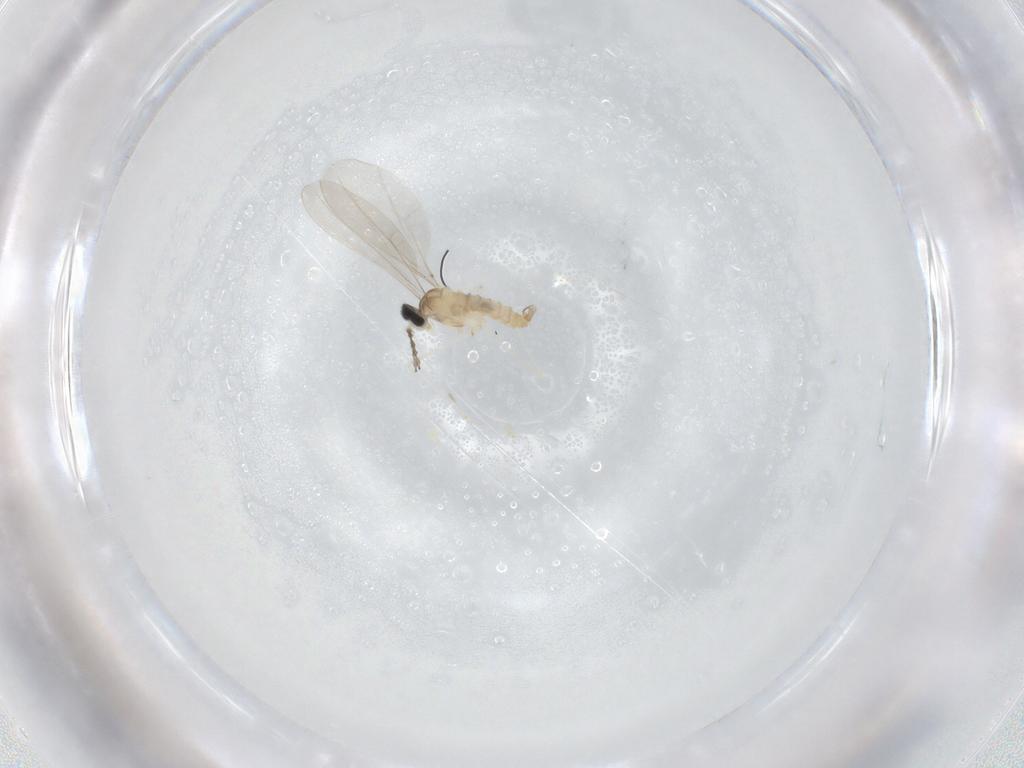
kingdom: Animalia
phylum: Arthropoda
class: Insecta
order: Diptera
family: Cecidomyiidae
